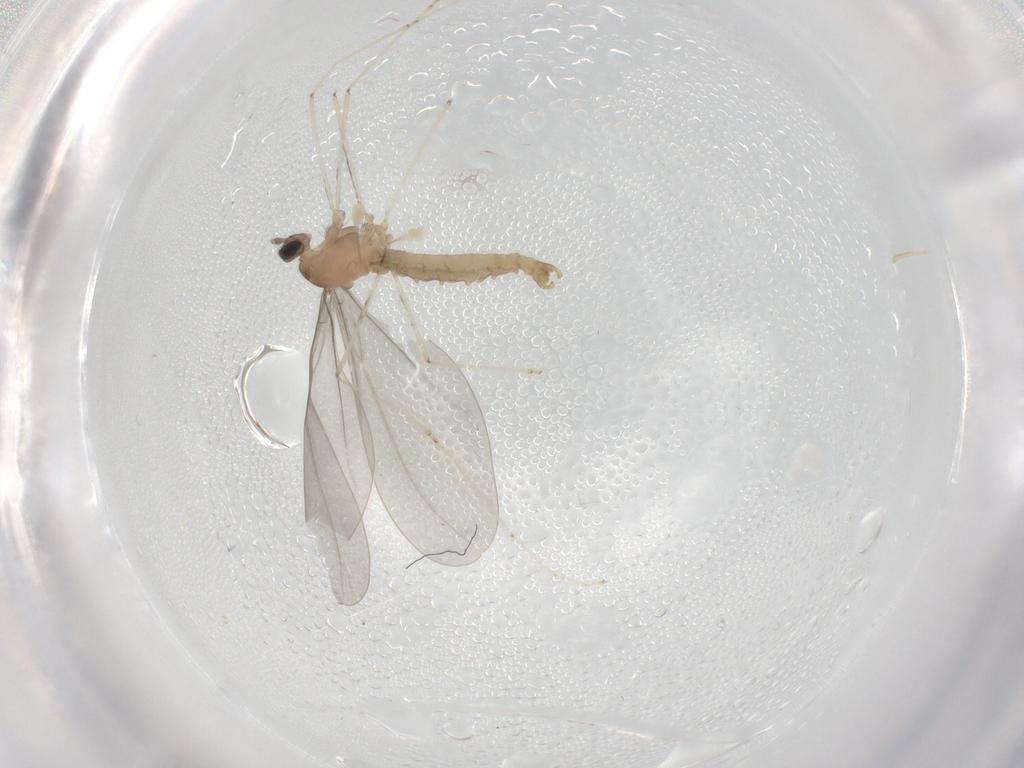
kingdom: Animalia
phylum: Arthropoda
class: Insecta
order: Diptera
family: Cecidomyiidae
